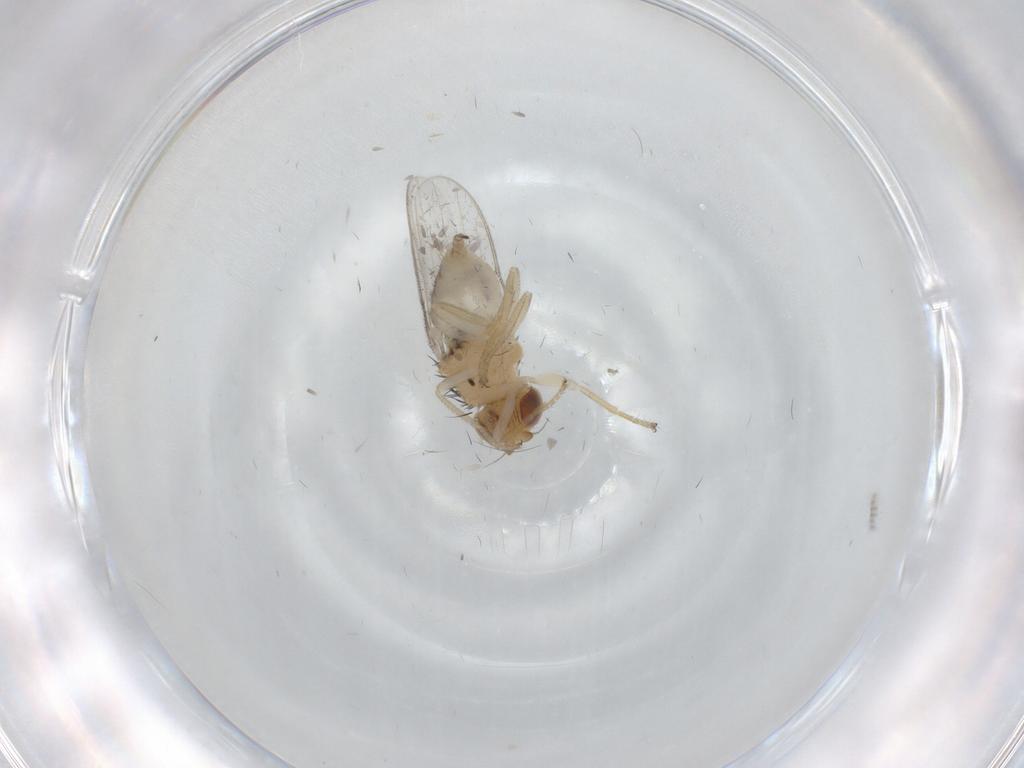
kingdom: Animalia
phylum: Arthropoda
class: Insecta
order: Diptera
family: Chloropidae
